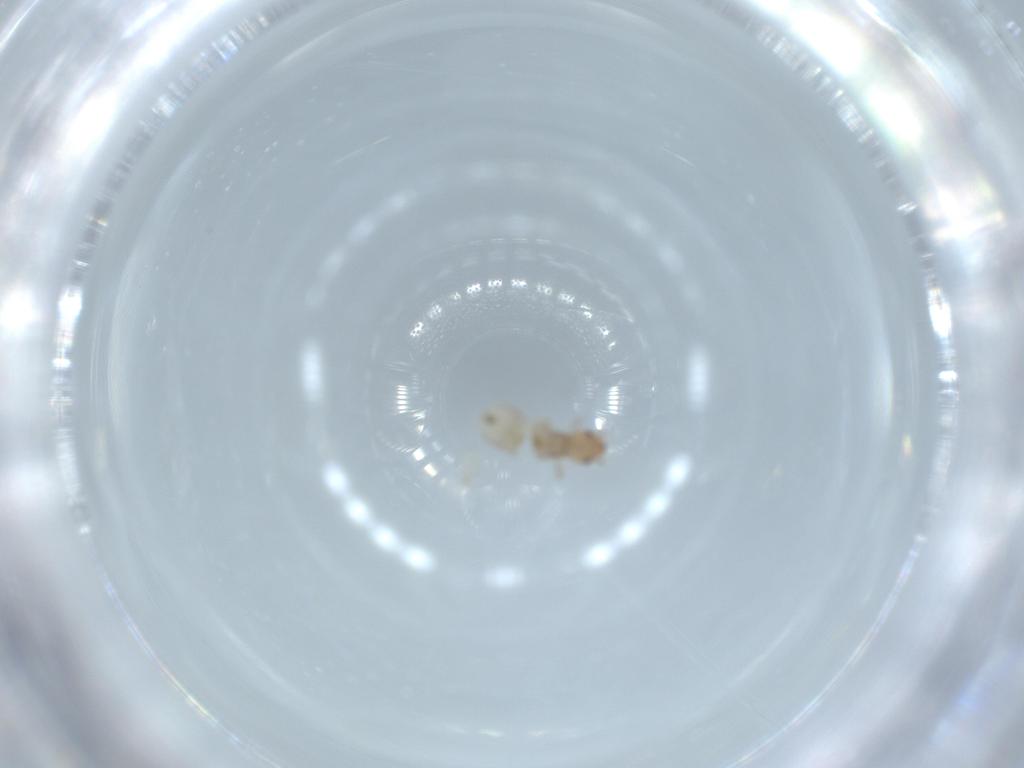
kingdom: Animalia
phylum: Arthropoda
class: Insecta
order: Psocodea
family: Liposcelididae
